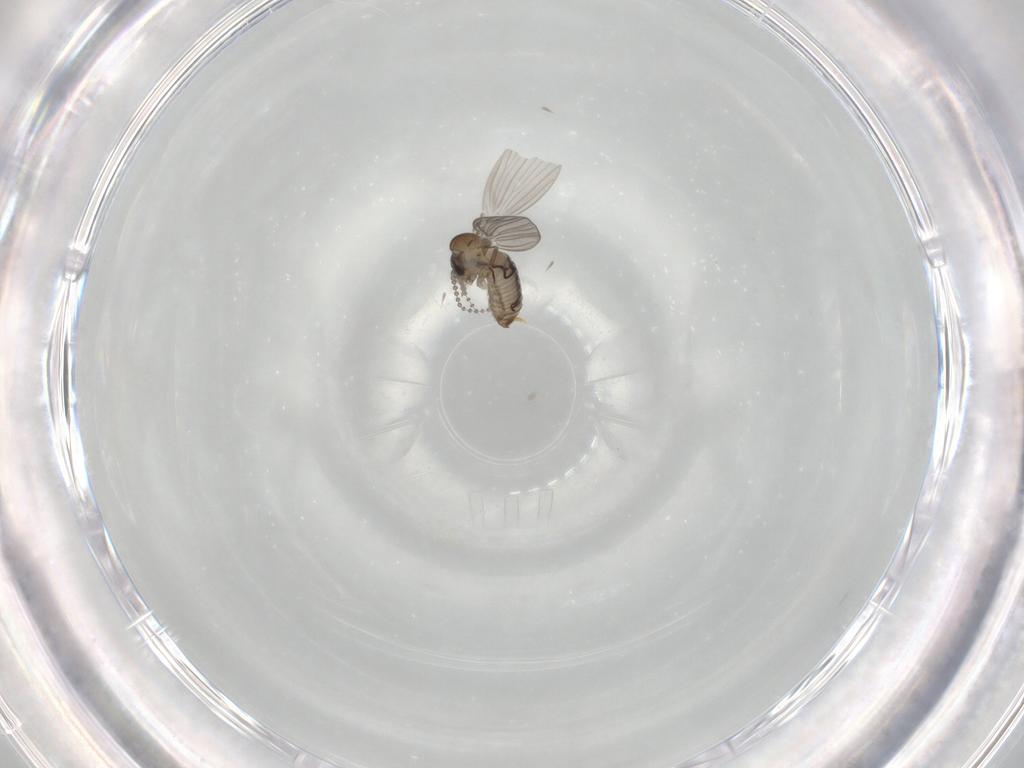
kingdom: Animalia
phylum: Arthropoda
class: Insecta
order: Diptera
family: Psychodidae
